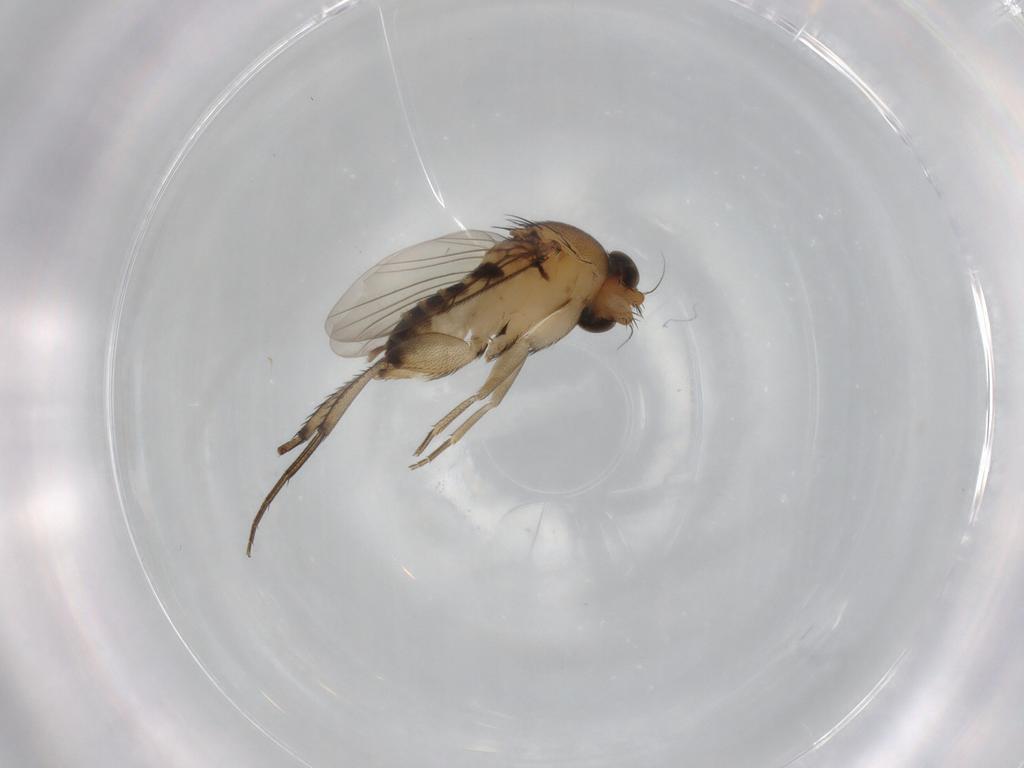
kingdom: Animalia
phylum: Arthropoda
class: Insecta
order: Diptera
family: Phoridae
